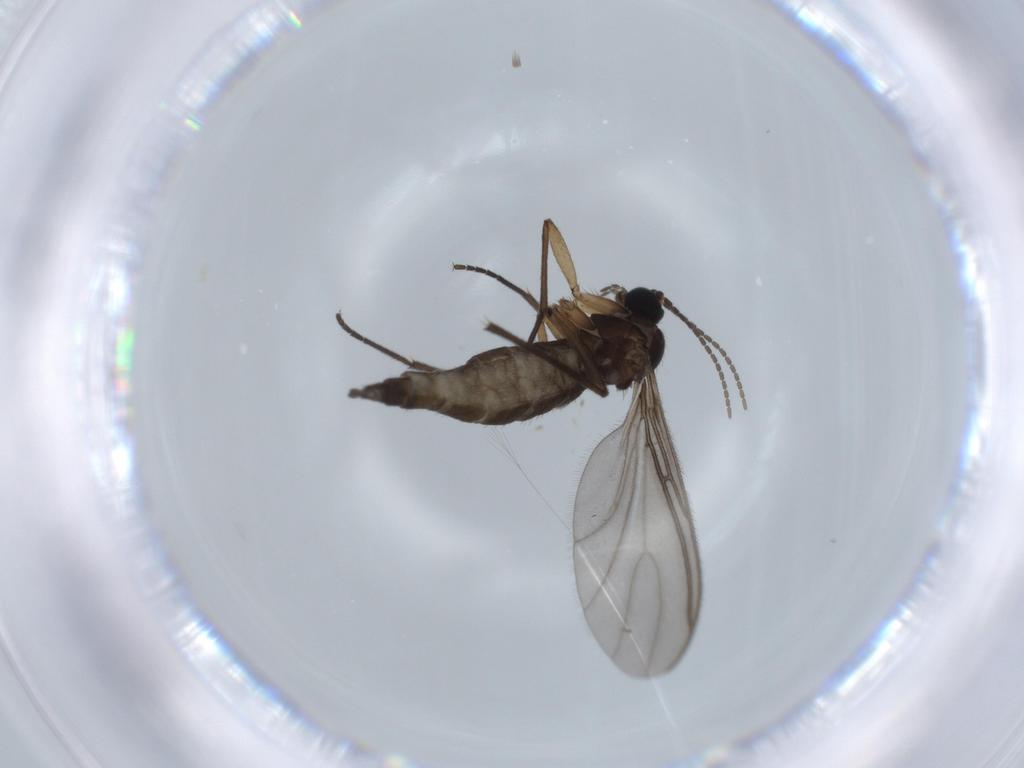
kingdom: Animalia
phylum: Arthropoda
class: Insecta
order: Diptera
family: Sciaridae
